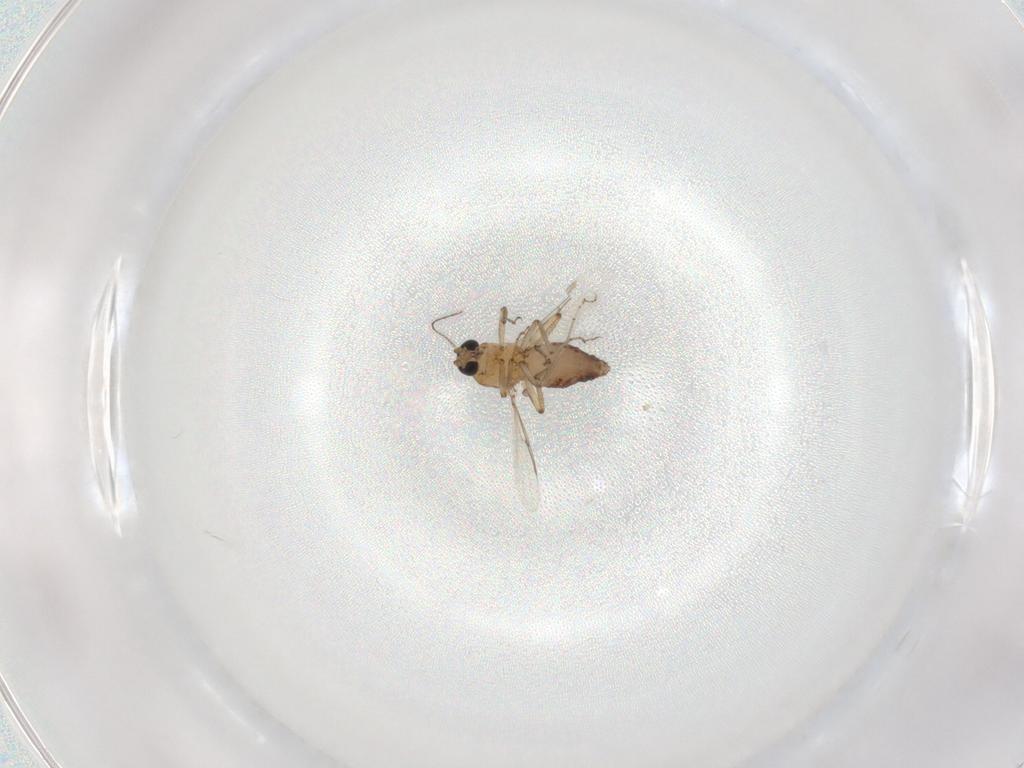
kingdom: Animalia
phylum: Arthropoda
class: Insecta
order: Diptera
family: Ceratopogonidae
